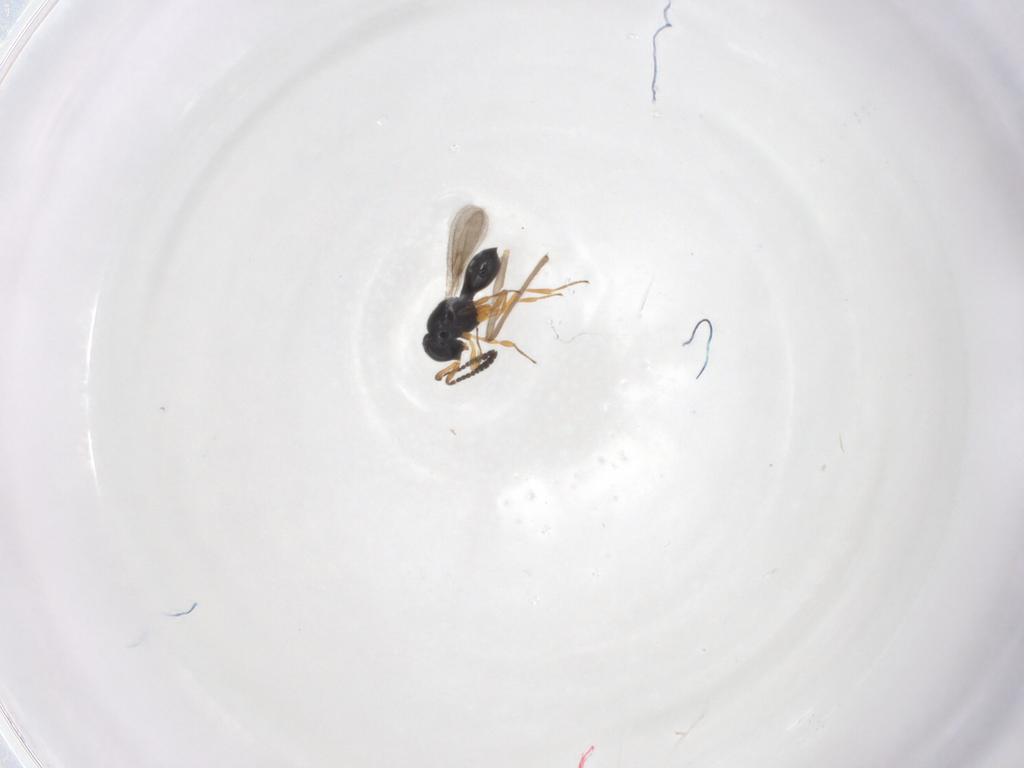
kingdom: Animalia
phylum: Arthropoda
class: Insecta
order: Hymenoptera
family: Scelionidae
